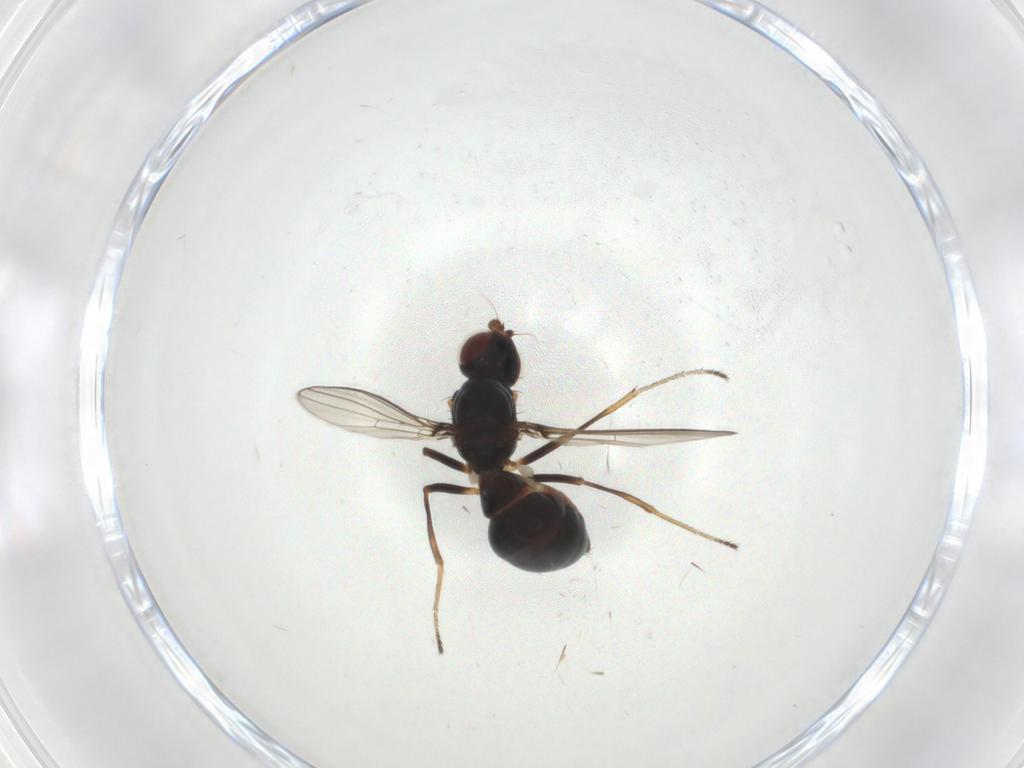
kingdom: Animalia
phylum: Arthropoda
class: Insecta
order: Diptera
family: Sepsidae
